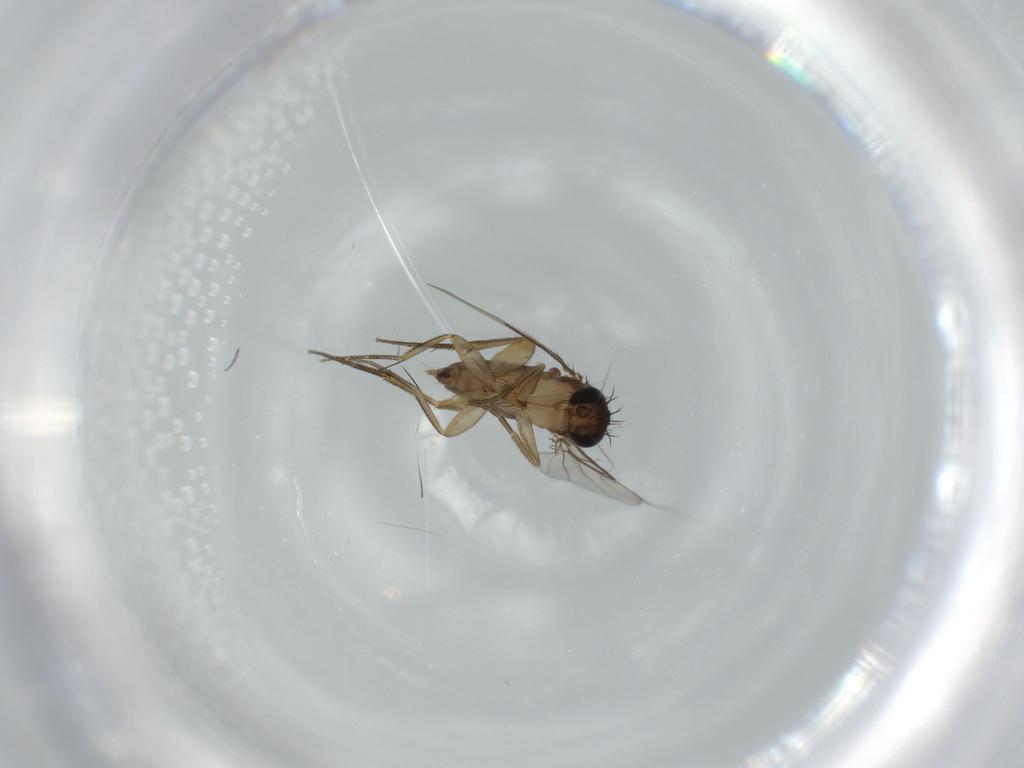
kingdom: Animalia
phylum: Arthropoda
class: Insecta
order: Diptera
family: Phoridae
